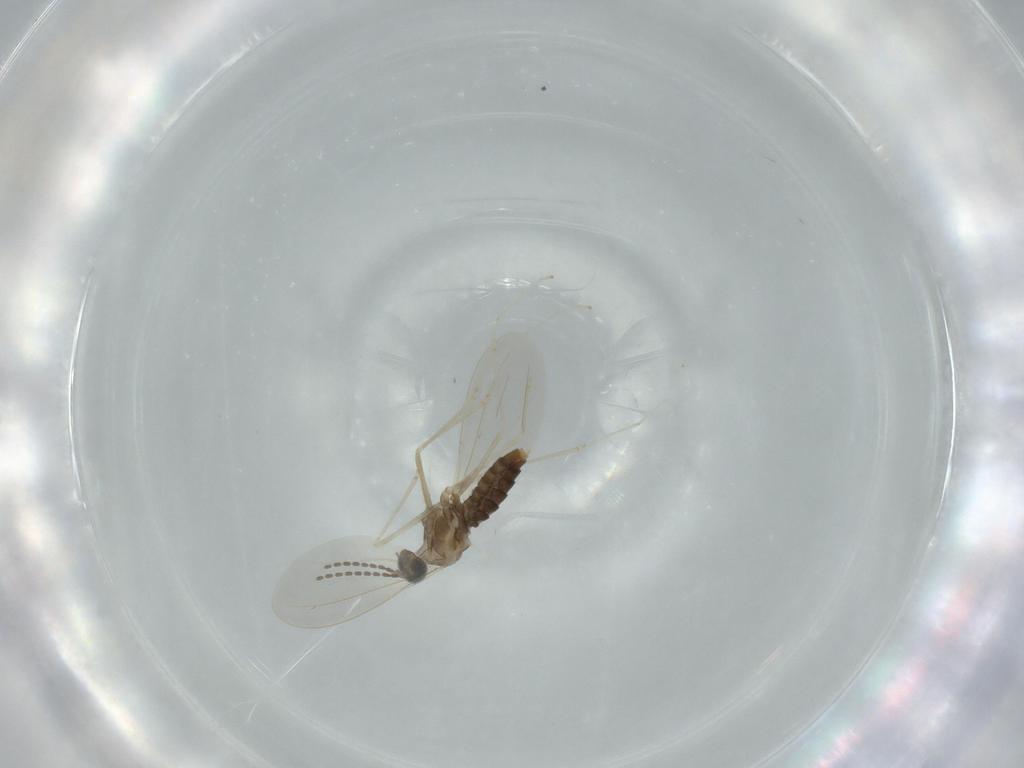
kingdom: Animalia
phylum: Arthropoda
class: Insecta
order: Diptera
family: Cecidomyiidae
